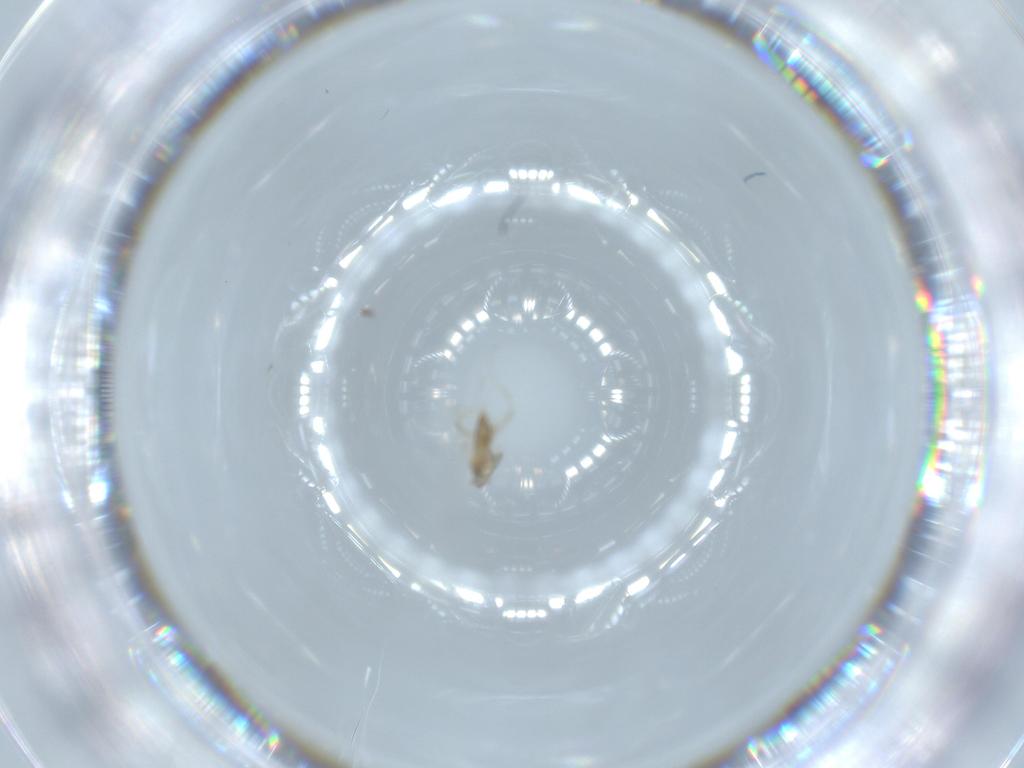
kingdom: Animalia
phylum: Arthropoda
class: Insecta
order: Diptera
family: Cecidomyiidae
